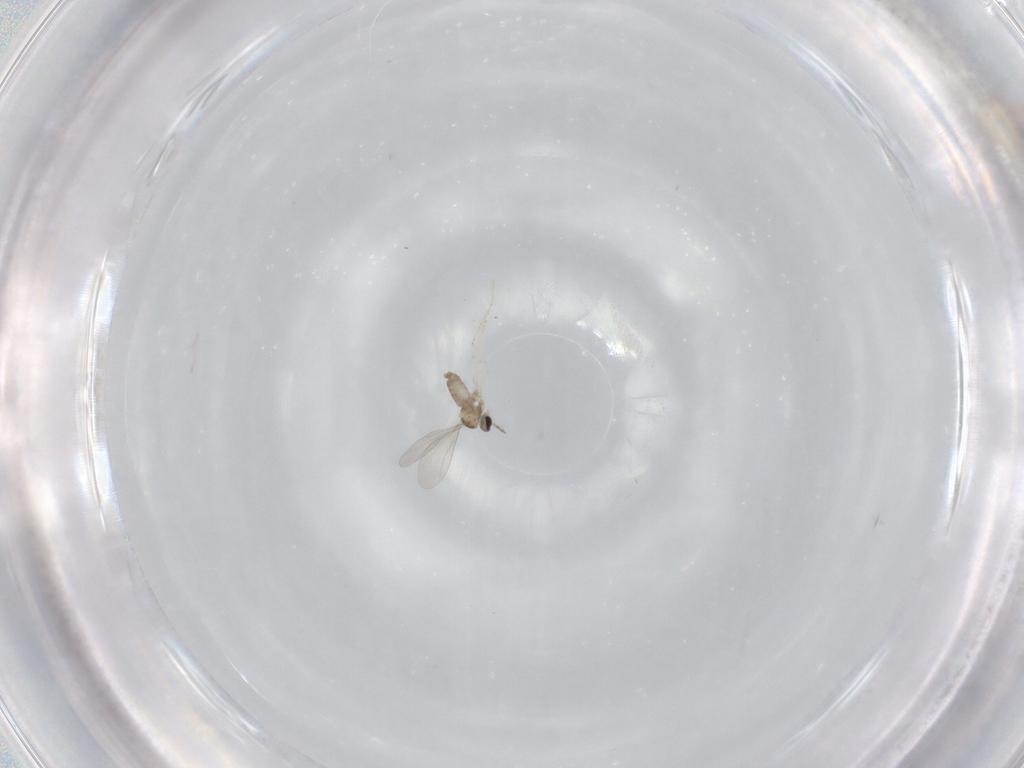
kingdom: Animalia
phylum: Arthropoda
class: Insecta
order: Diptera
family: Cecidomyiidae
